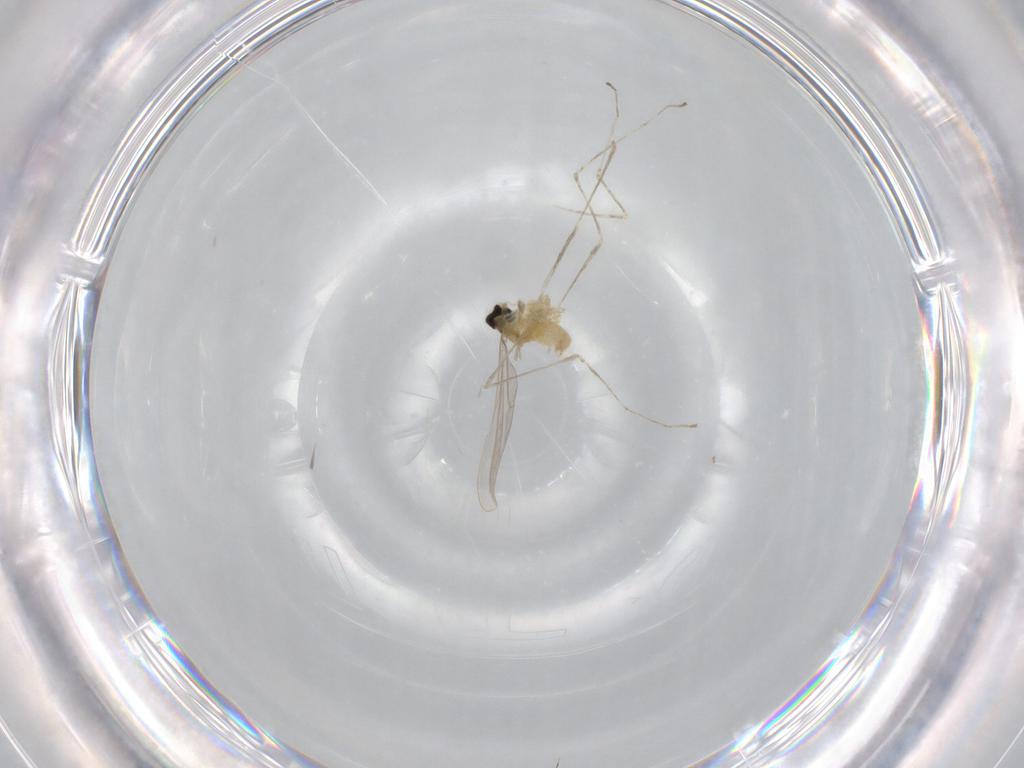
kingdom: Animalia
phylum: Arthropoda
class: Insecta
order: Diptera
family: Cecidomyiidae
